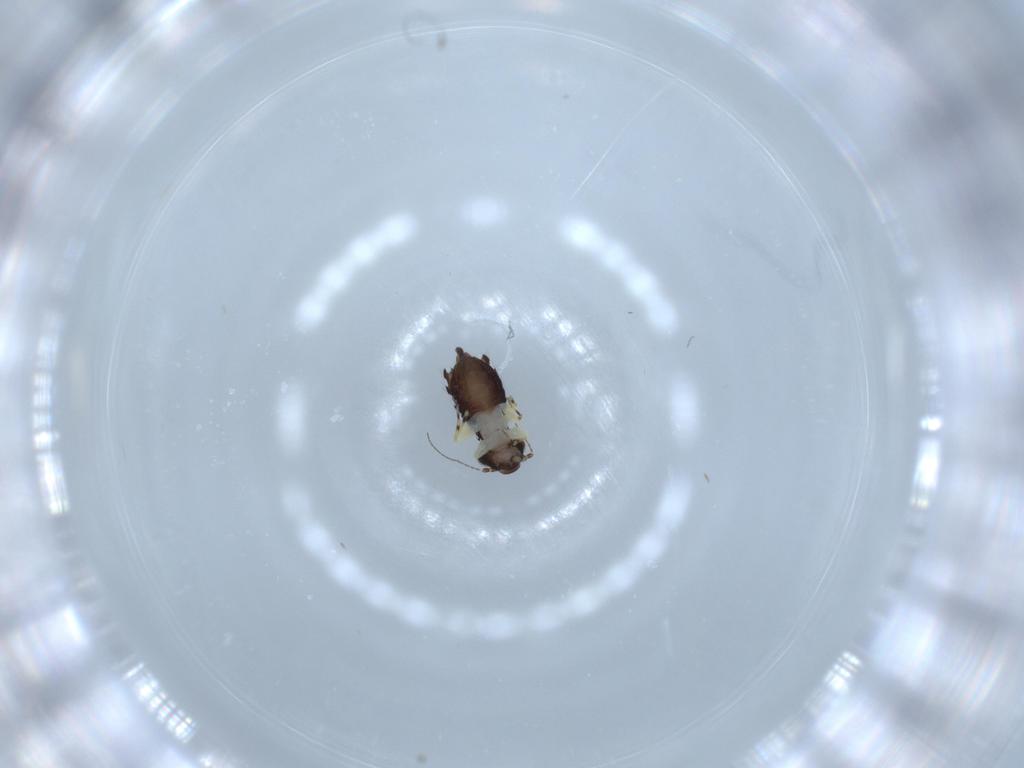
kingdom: Animalia
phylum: Arthropoda
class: Insecta
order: Psocodea
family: Psoquillidae
